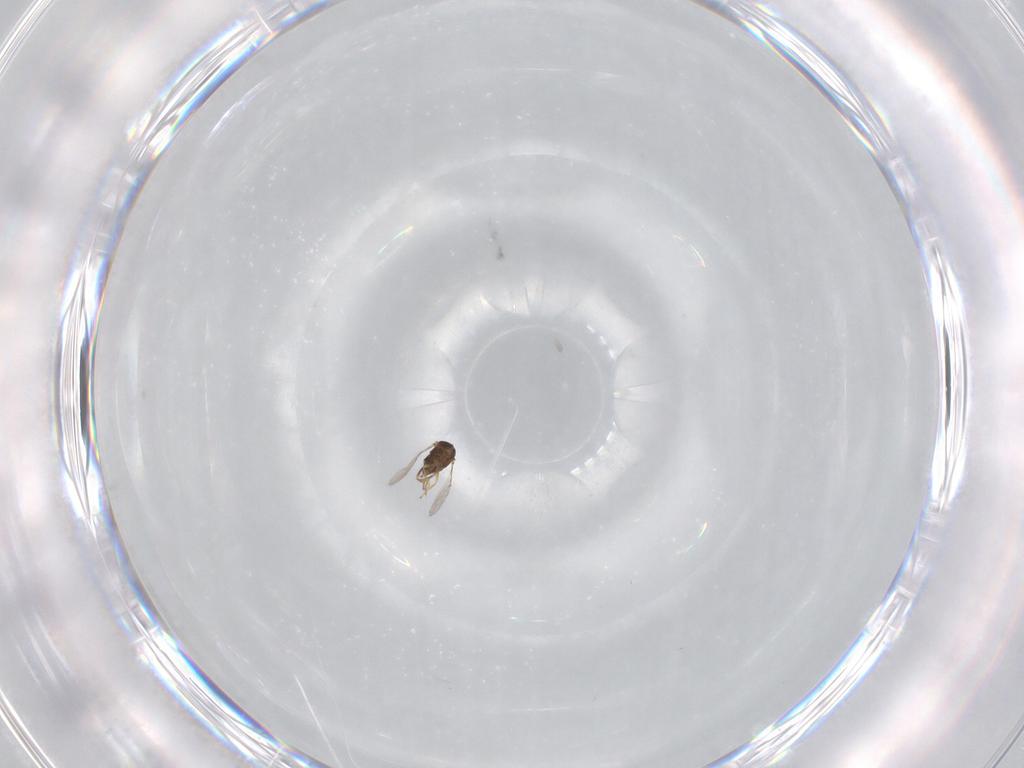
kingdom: Animalia
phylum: Arthropoda
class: Insecta
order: Hymenoptera
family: Encyrtidae
